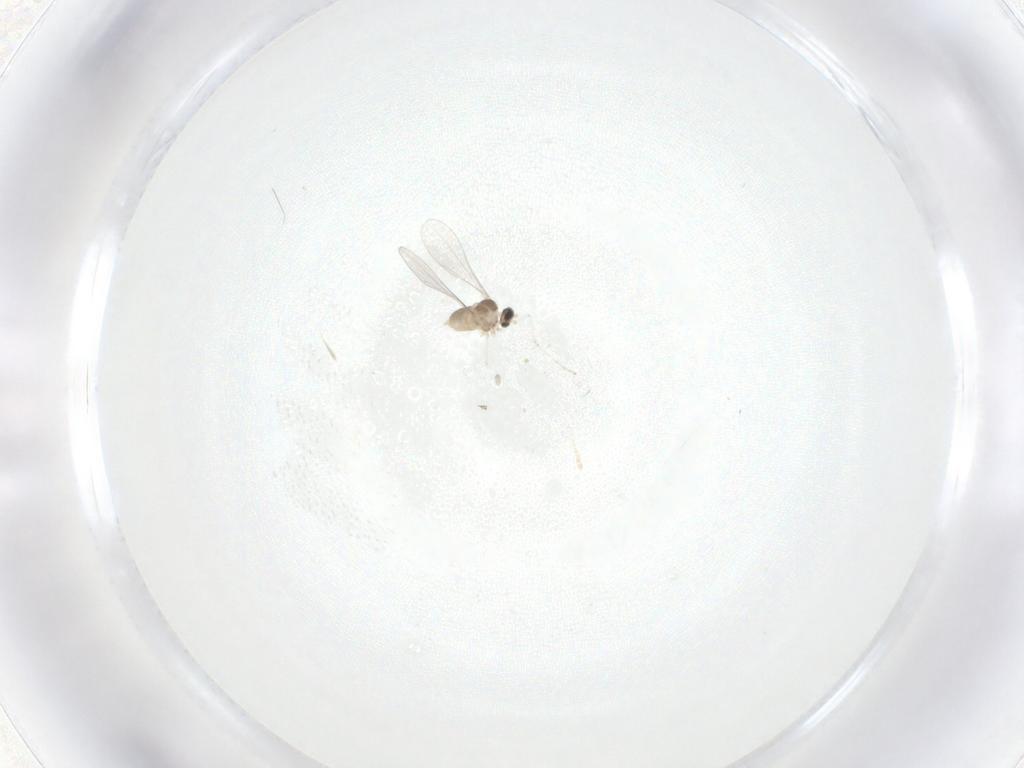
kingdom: Animalia
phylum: Arthropoda
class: Insecta
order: Diptera
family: Cecidomyiidae
